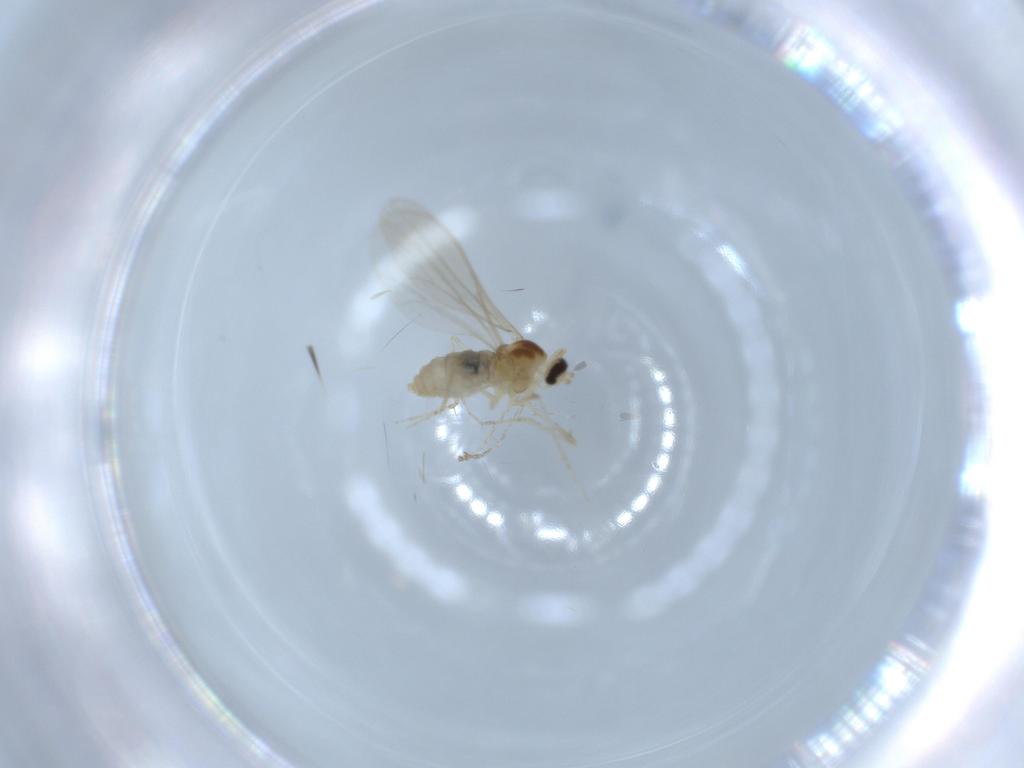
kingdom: Animalia
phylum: Arthropoda
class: Insecta
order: Diptera
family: Cecidomyiidae
